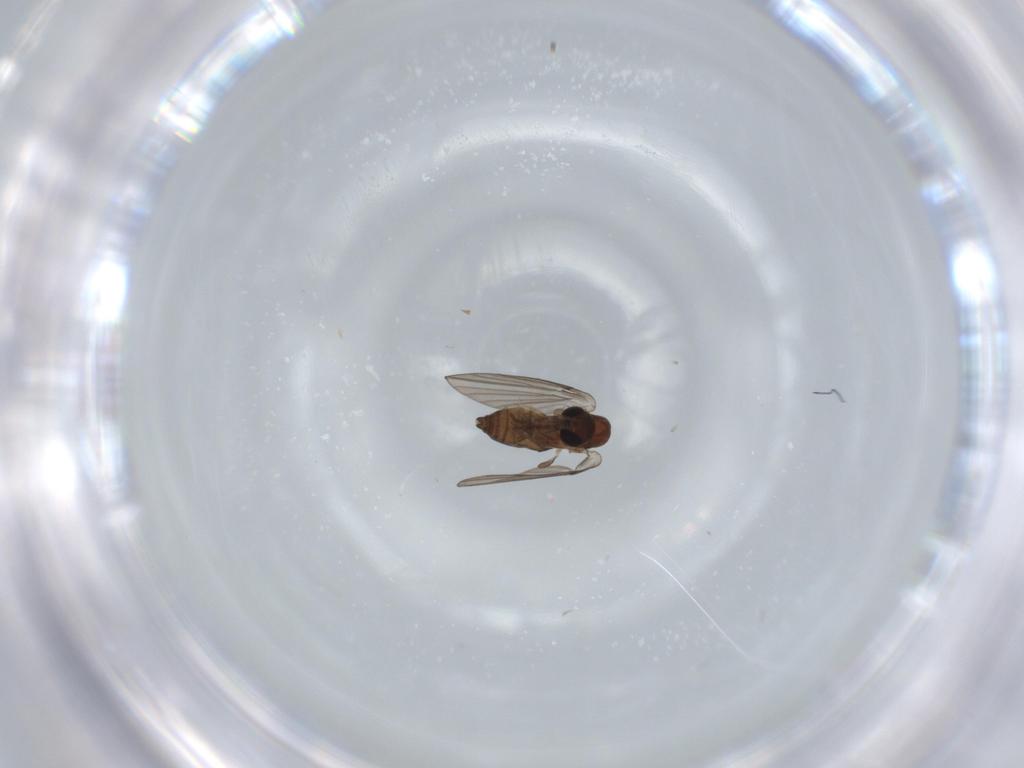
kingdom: Animalia
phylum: Arthropoda
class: Insecta
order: Diptera
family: Psychodidae
